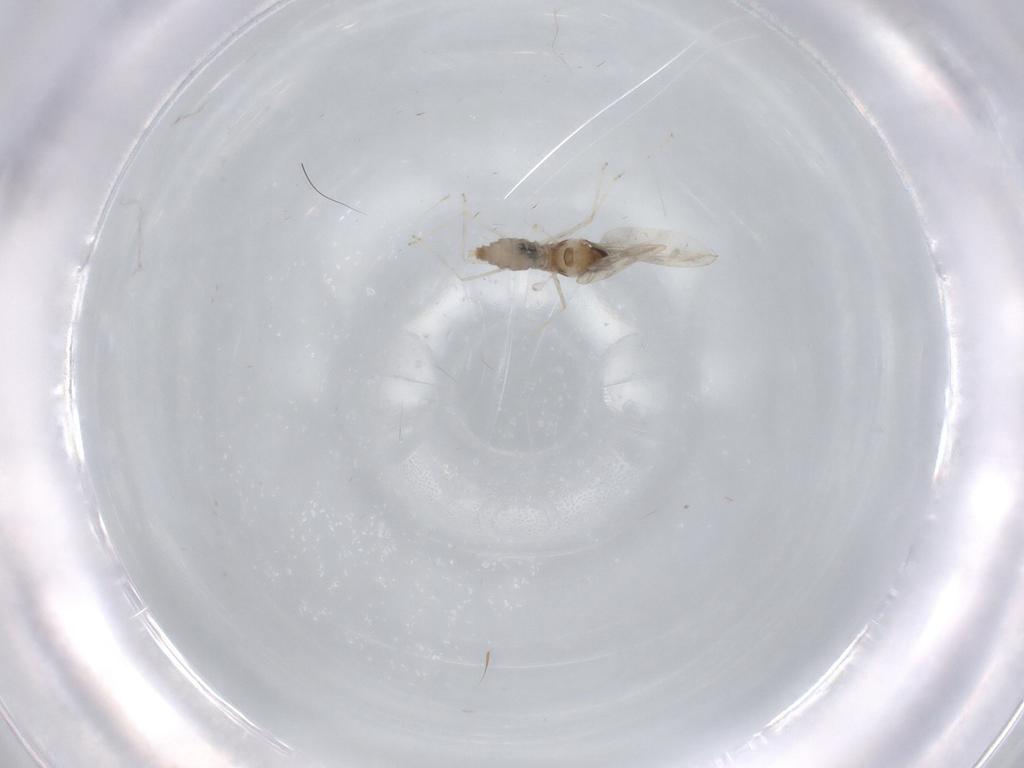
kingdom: Animalia
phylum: Arthropoda
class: Insecta
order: Diptera
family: Cecidomyiidae
